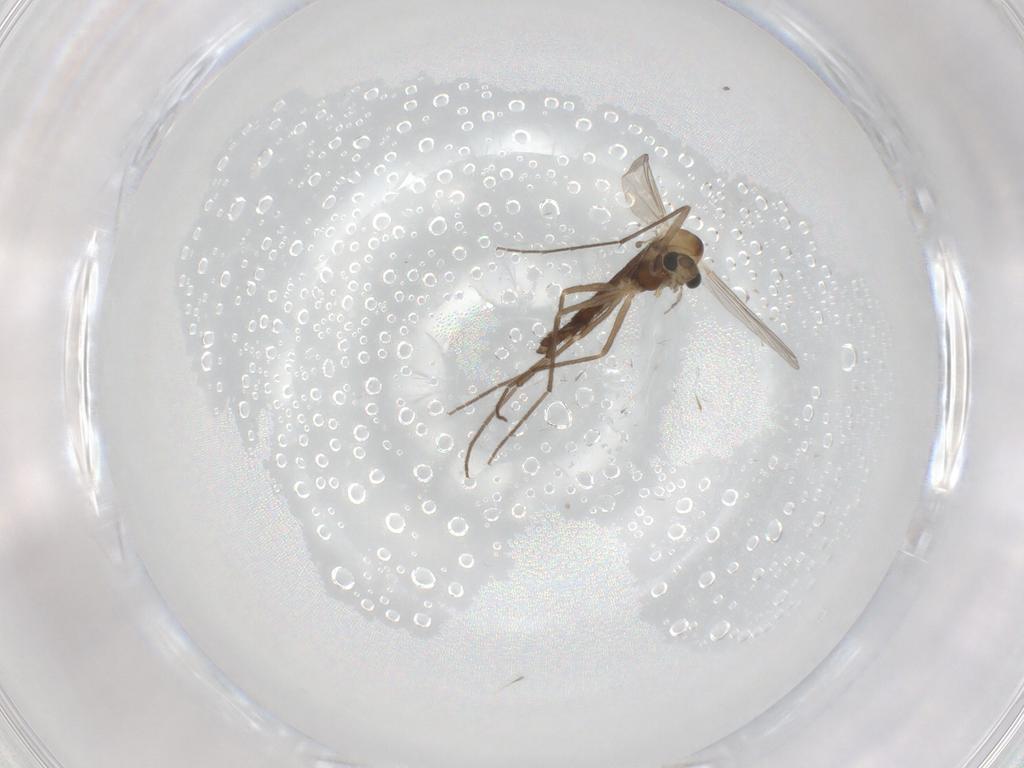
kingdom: Animalia
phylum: Arthropoda
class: Insecta
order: Diptera
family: Chironomidae
